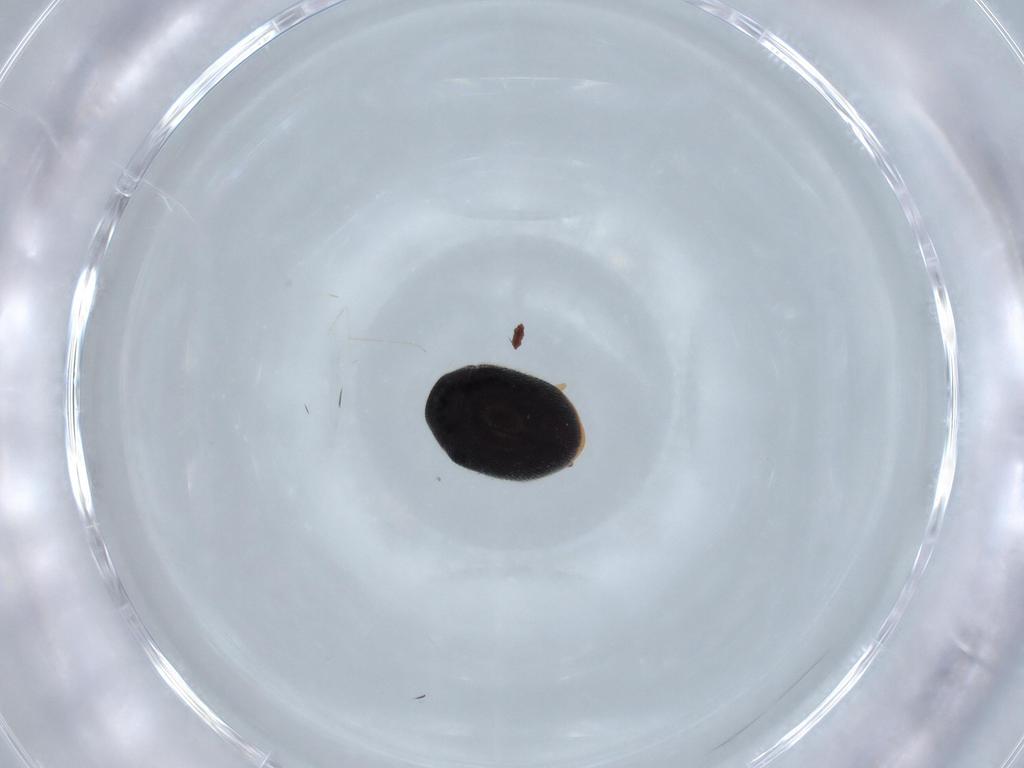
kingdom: Animalia
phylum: Arthropoda
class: Insecta
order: Coleoptera
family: Coccinellidae
